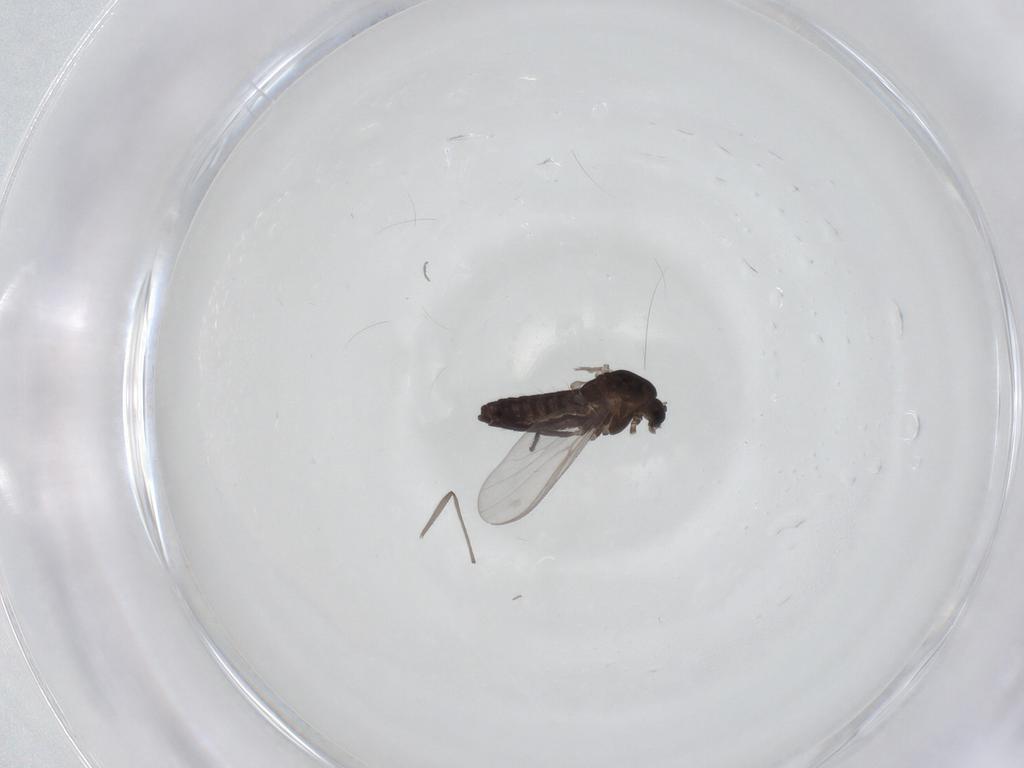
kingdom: Animalia
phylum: Arthropoda
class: Insecta
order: Diptera
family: Chironomidae
